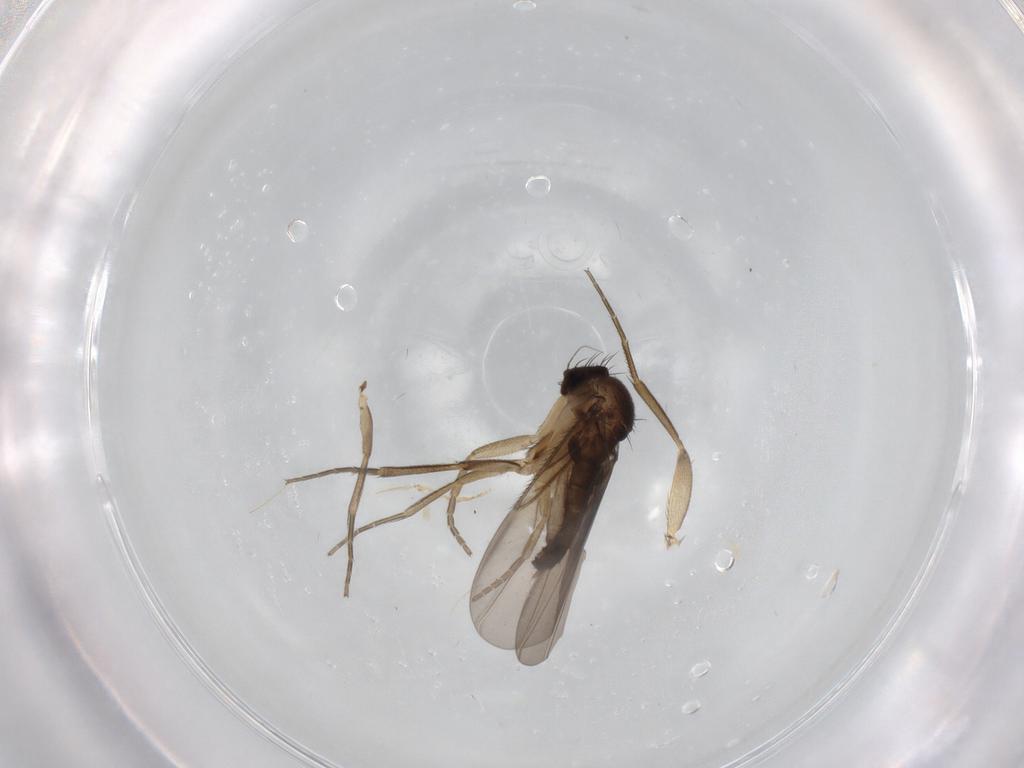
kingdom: Animalia
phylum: Arthropoda
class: Insecta
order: Diptera
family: Phoridae
